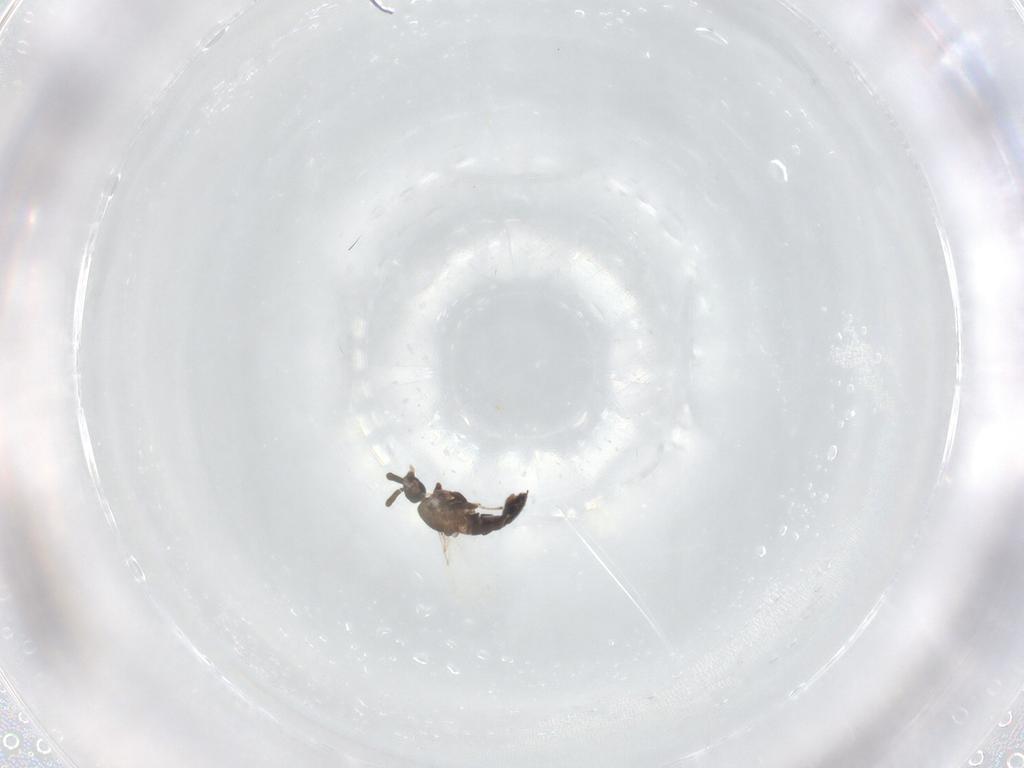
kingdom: Animalia
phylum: Arthropoda
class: Insecta
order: Diptera
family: Scatopsidae
